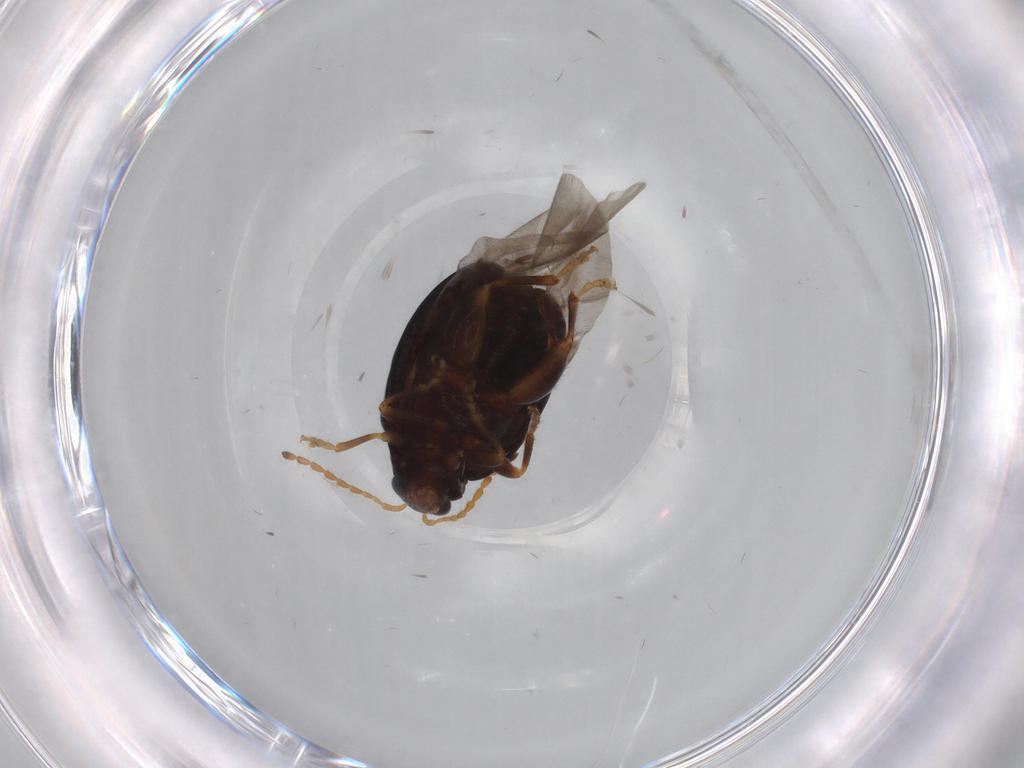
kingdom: Animalia
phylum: Arthropoda
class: Insecta
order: Coleoptera
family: Chrysomelidae
